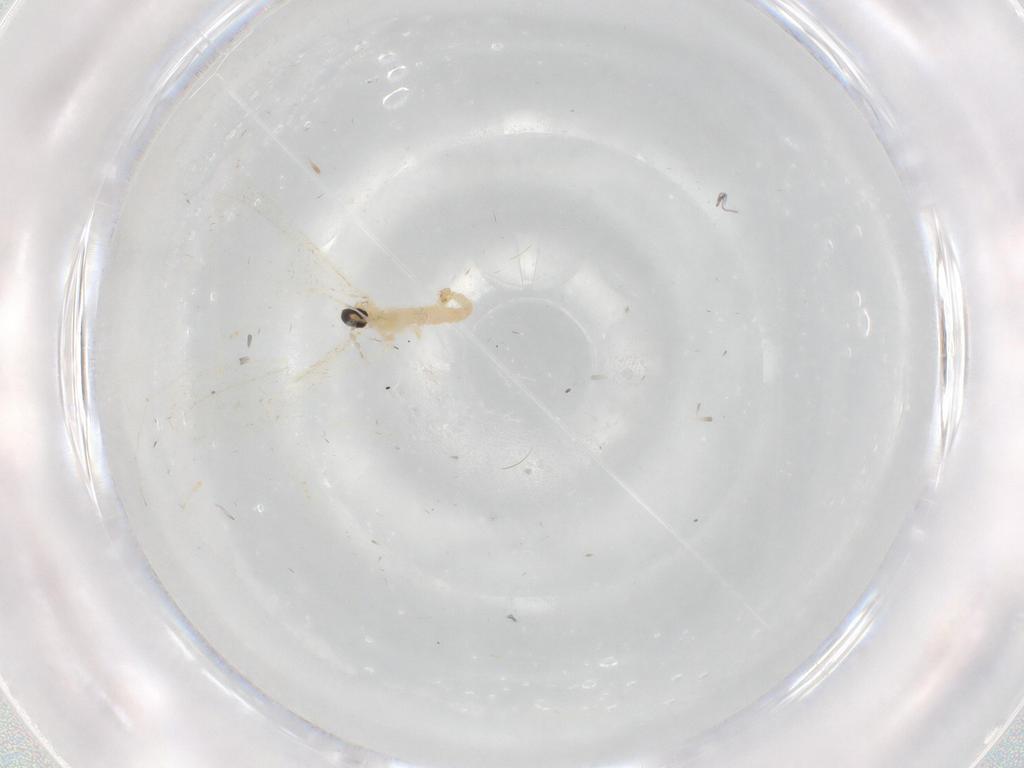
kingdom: Animalia
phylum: Arthropoda
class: Insecta
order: Diptera
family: Cecidomyiidae
